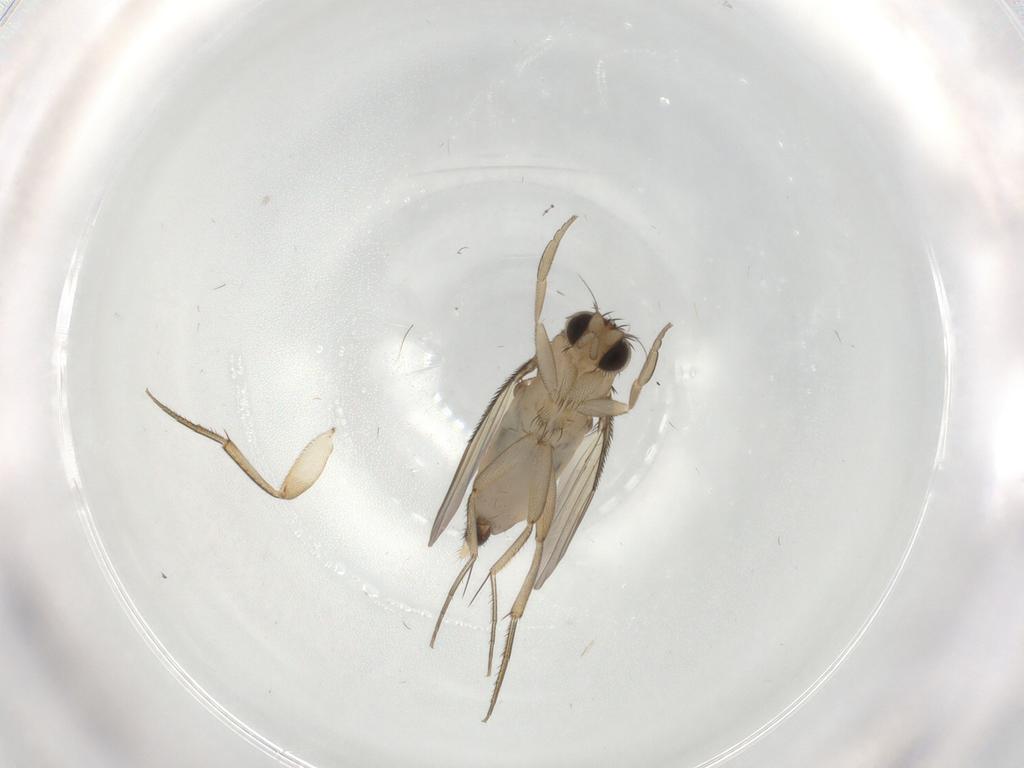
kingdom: Animalia
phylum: Arthropoda
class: Insecta
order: Diptera
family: Phoridae
